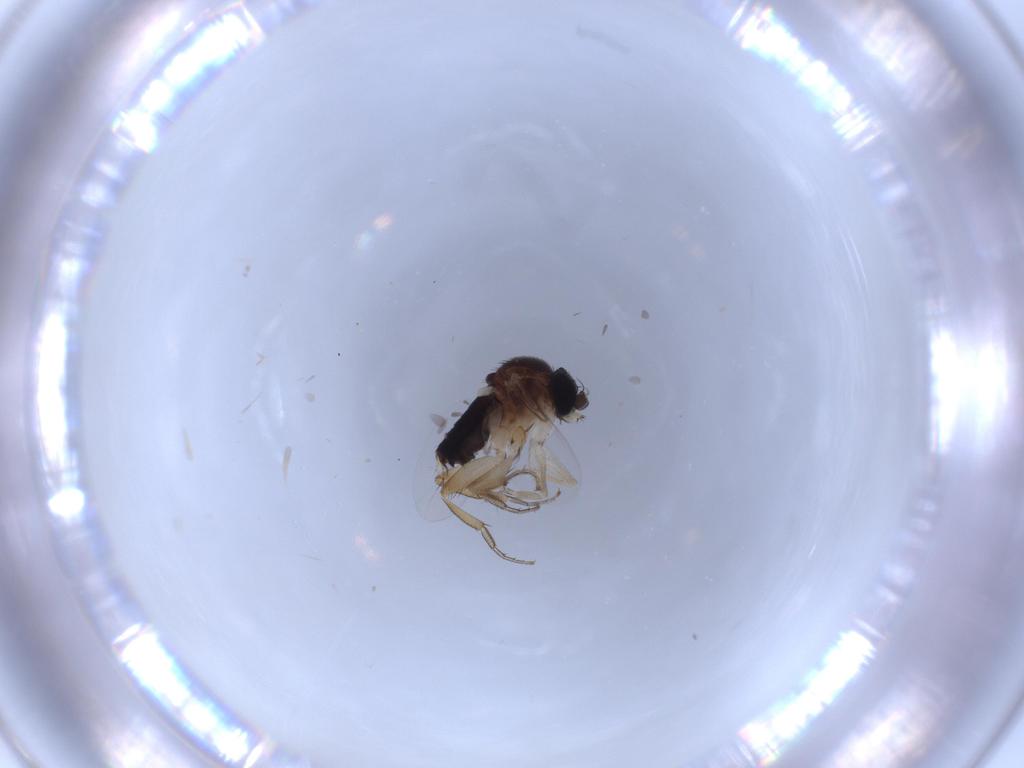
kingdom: Animalia
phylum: Arthropoda
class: Insecta
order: Diptera
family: Phoridae
